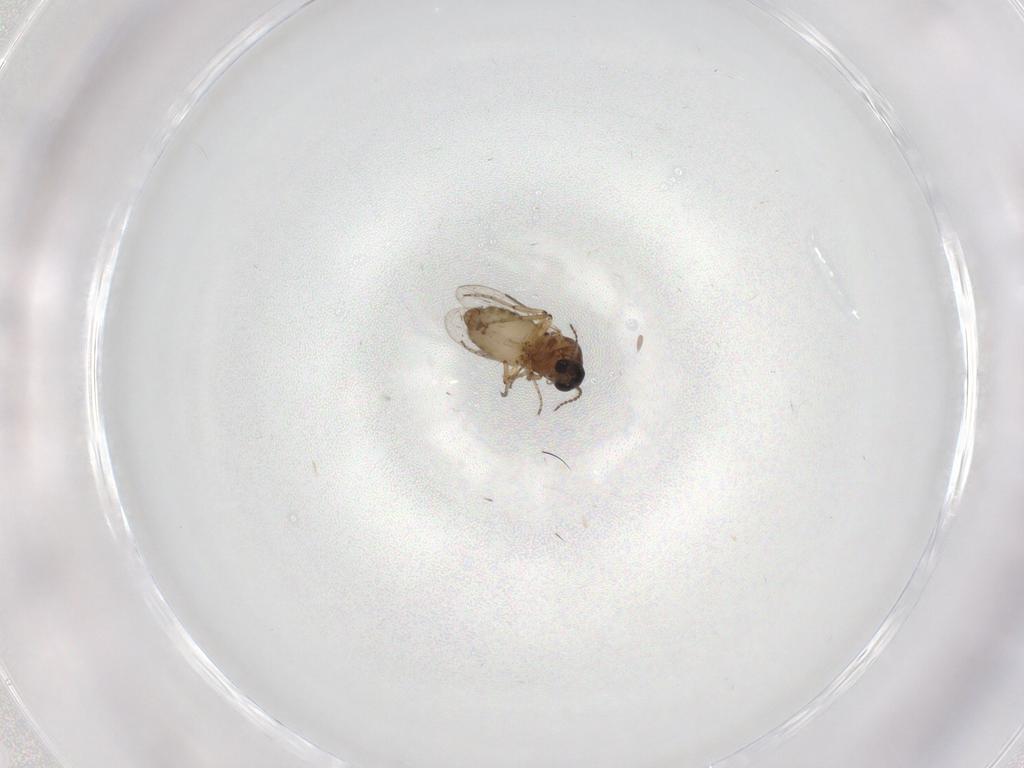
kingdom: Animalia
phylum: Arthropoda
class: Insecta
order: Diptera
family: Ceratopogonidae
